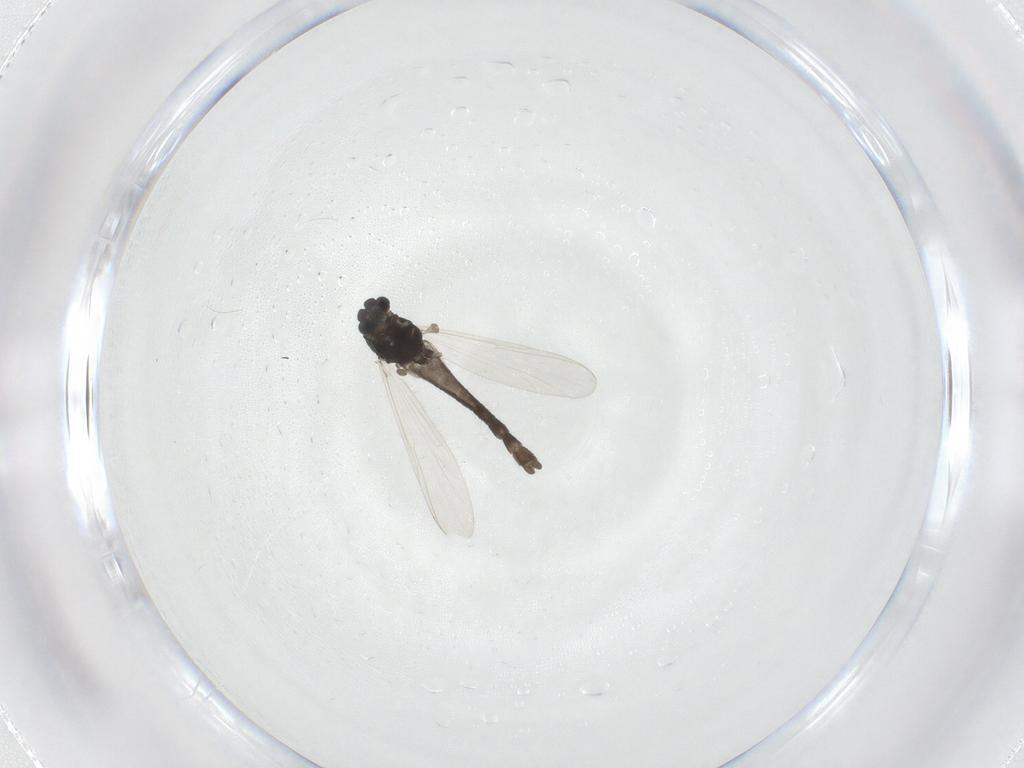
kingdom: Animalia
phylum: Arthropoda
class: Insecta
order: Diptera
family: Chironomidae
